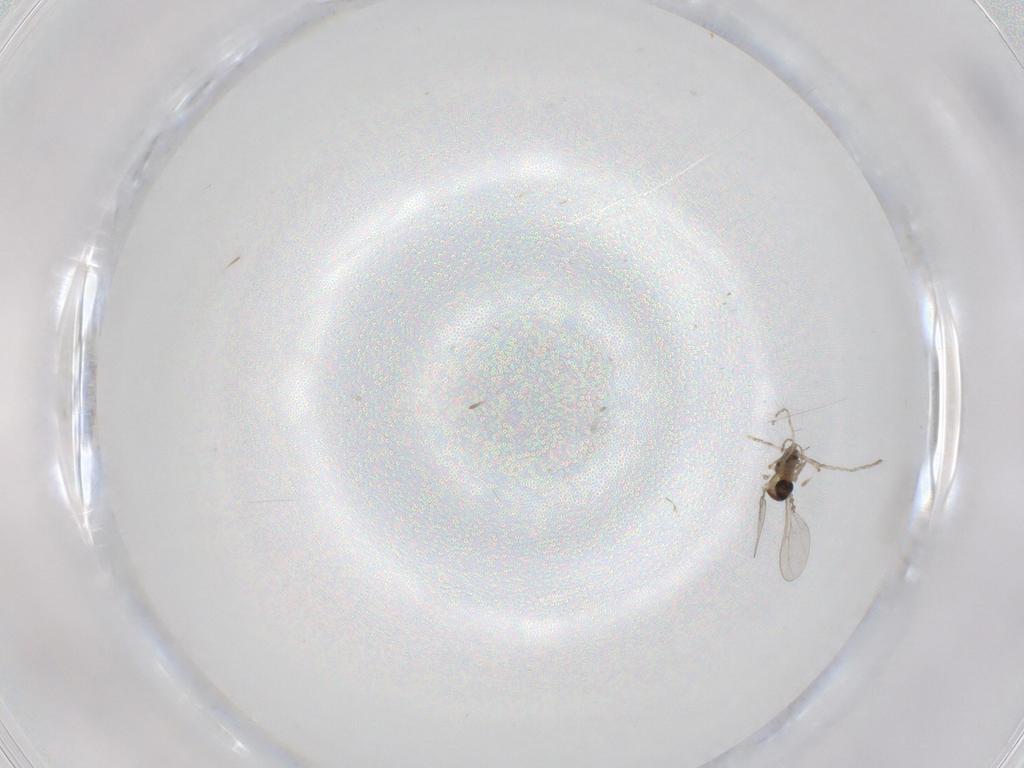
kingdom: Animalia
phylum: Arthropoda
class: Insecta
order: Diptera
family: Cecidomyiidae
